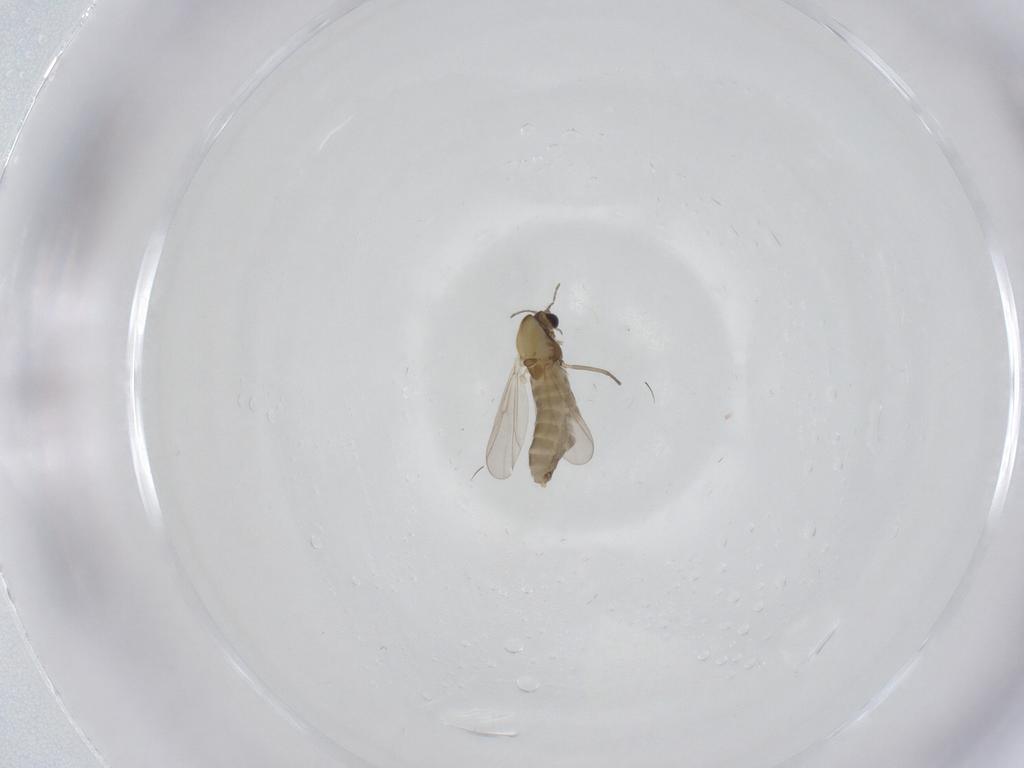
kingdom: Animalia
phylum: Arthropoda
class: Insecta
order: Diptera
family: Chironomidae
